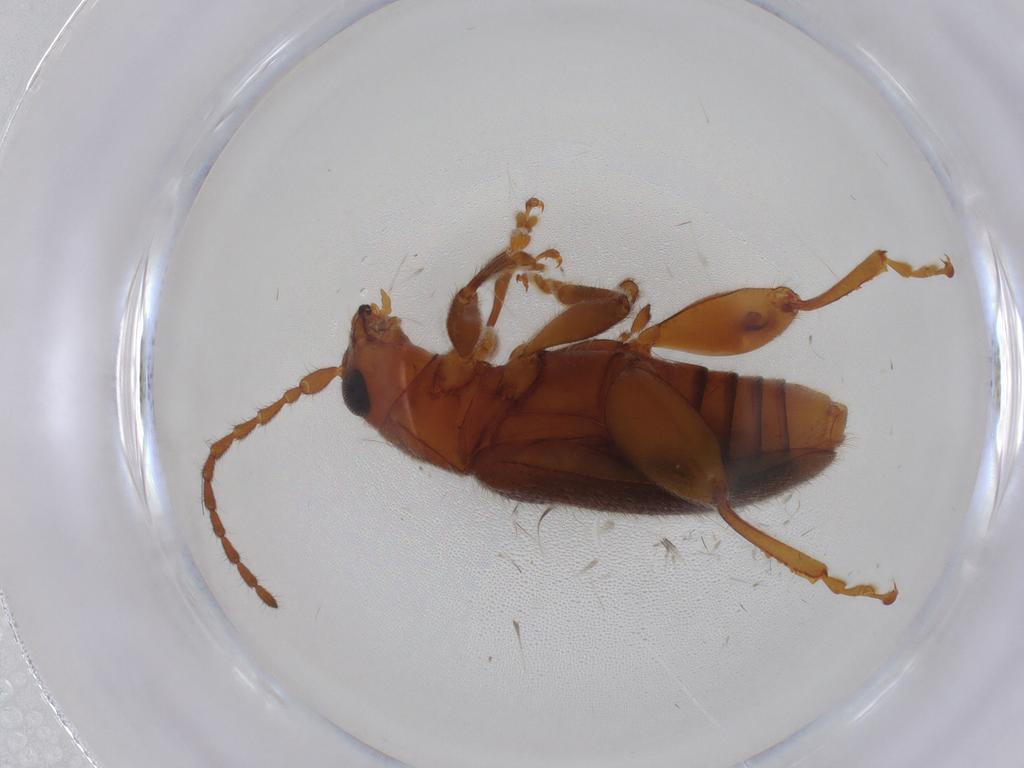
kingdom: Animalia
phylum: Arthropoda
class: Insecta
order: Coleoptera
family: Chrysomelidae
